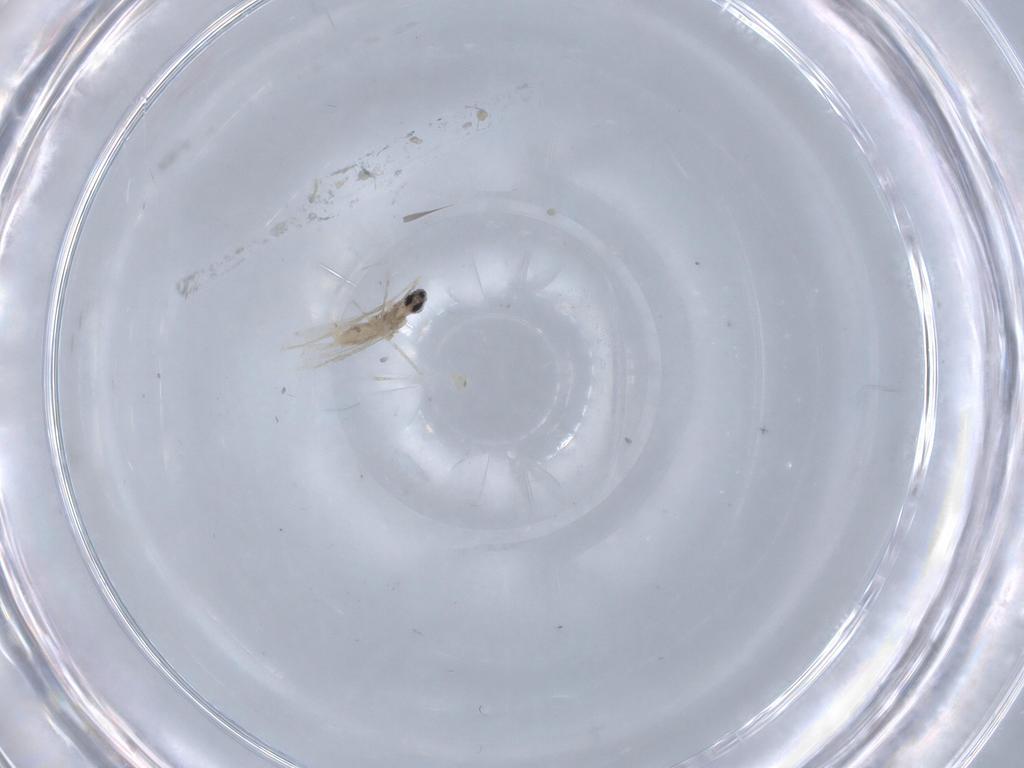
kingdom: Animalia
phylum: Arthropoda
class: Insecta
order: Diptera
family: Cecidomyiidae
